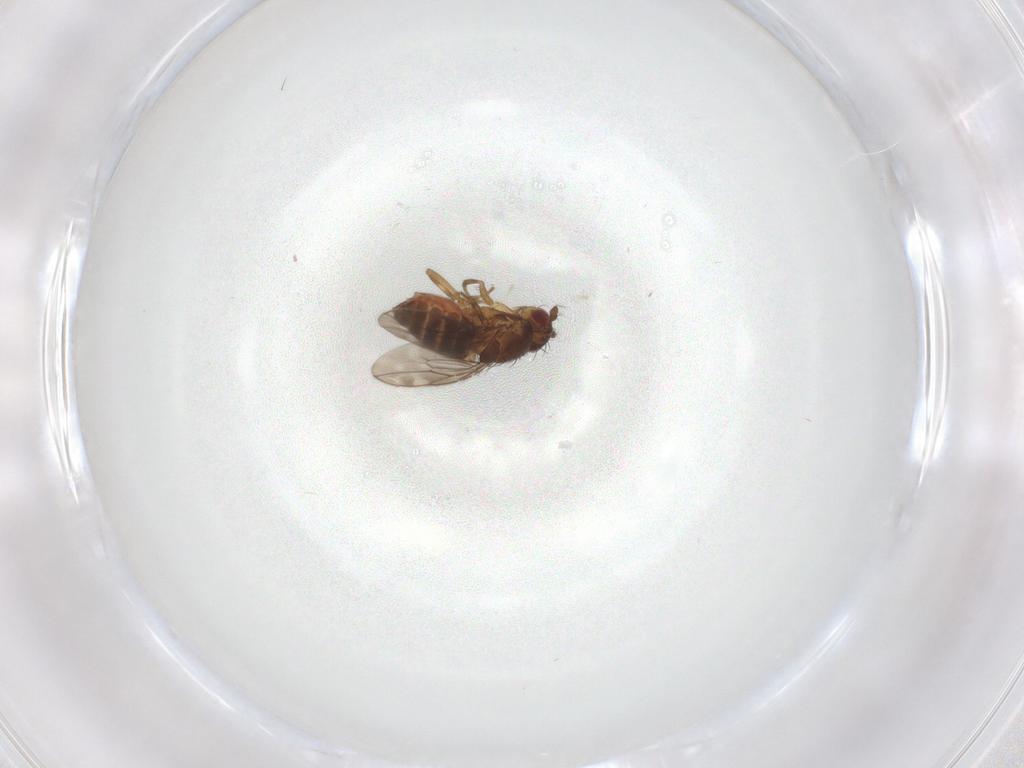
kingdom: Animalia
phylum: Arthropoda
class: Insecta
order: Diptera
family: Sphaeroceridae
